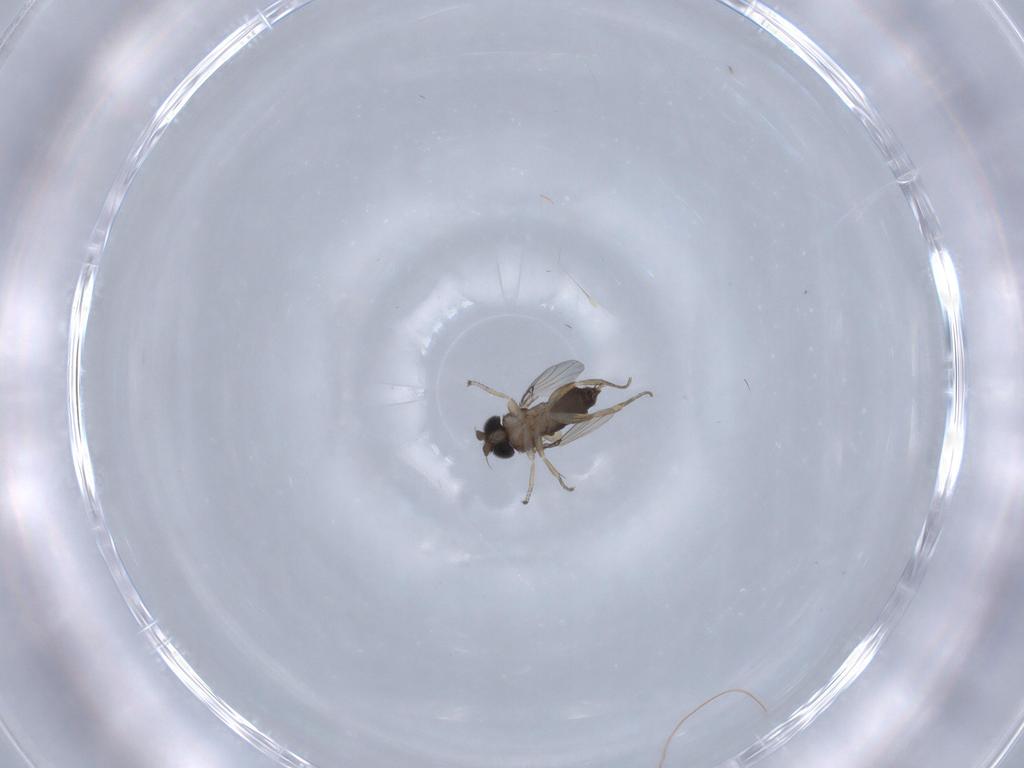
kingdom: Animalia
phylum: Arthropoda
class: Insecta
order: Diptera
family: Phoridae
